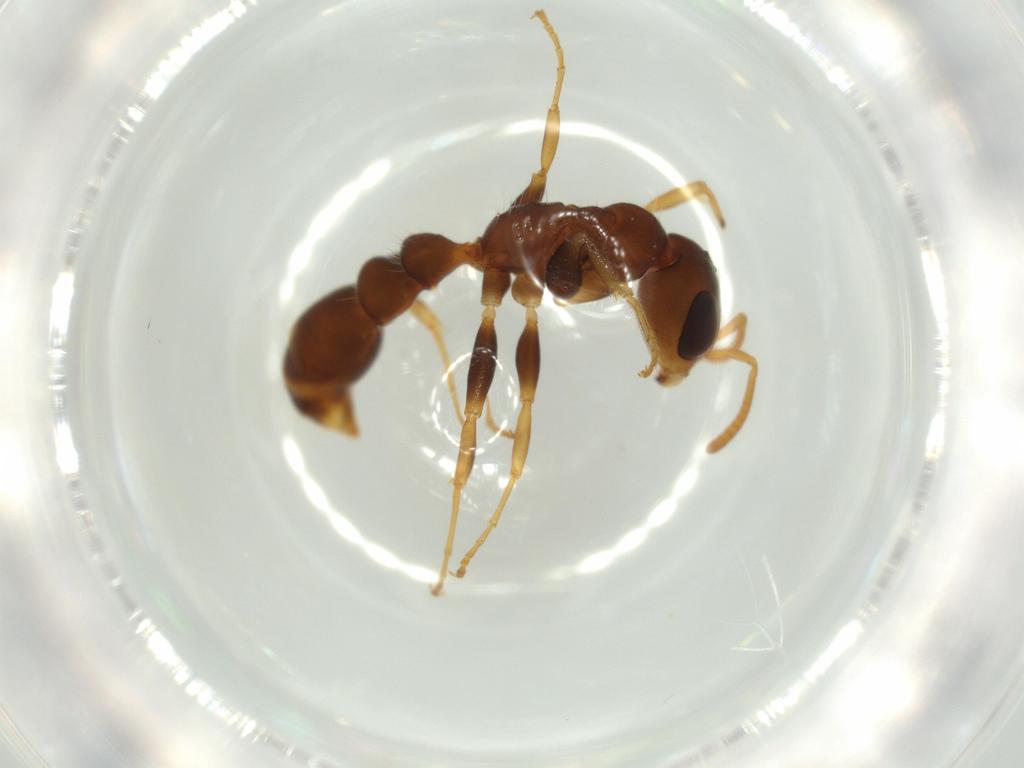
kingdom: Animalia
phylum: Arthropoda
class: Insecta
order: Hymenoptera
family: Formicidae
